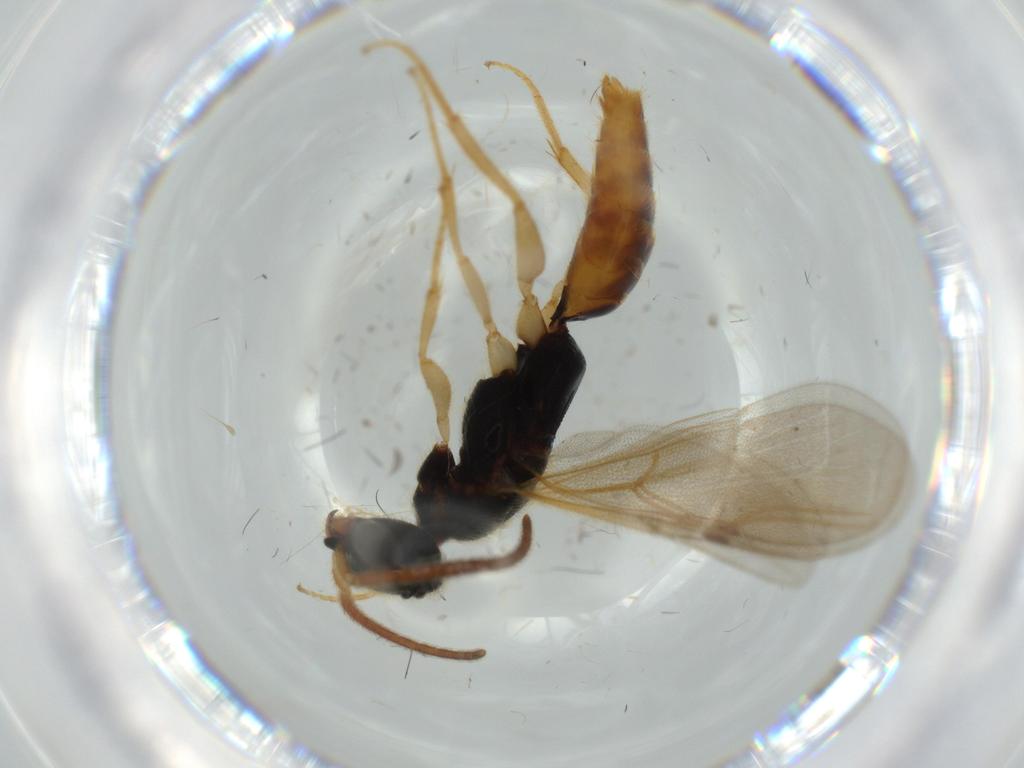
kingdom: Animalia
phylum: Arthropoda
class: Insecta
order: Hymenoptera
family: Bethylidae
